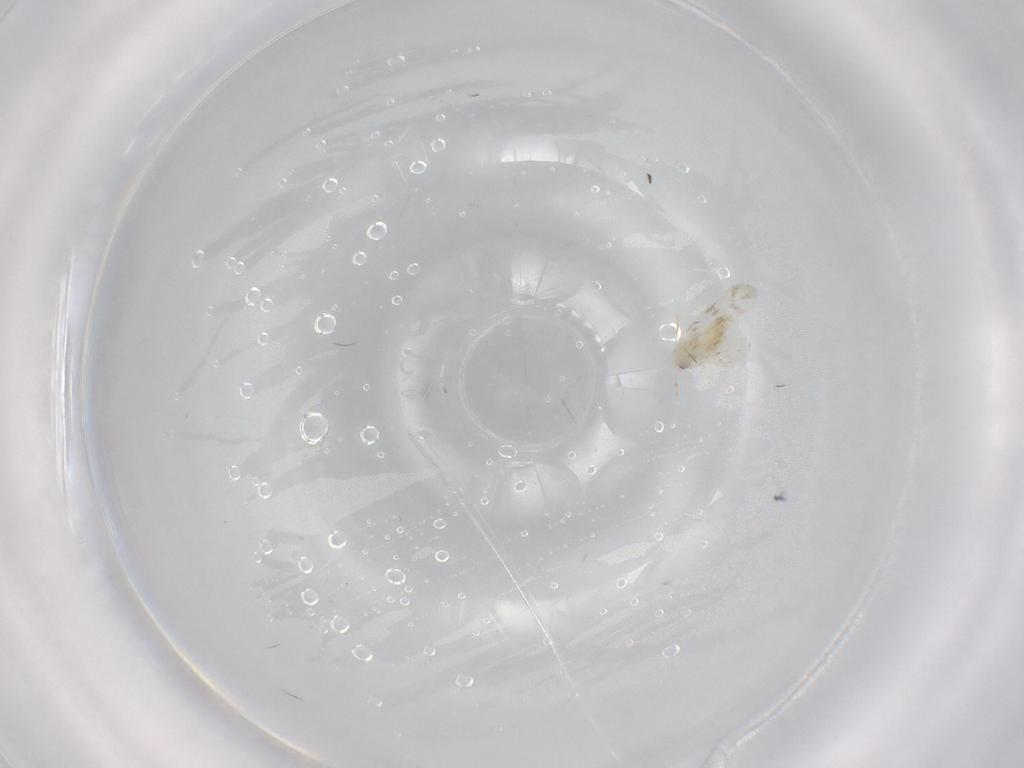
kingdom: Animalia
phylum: Arthropoda
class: Insecta
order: Hemiptera
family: Aleyrodidae
